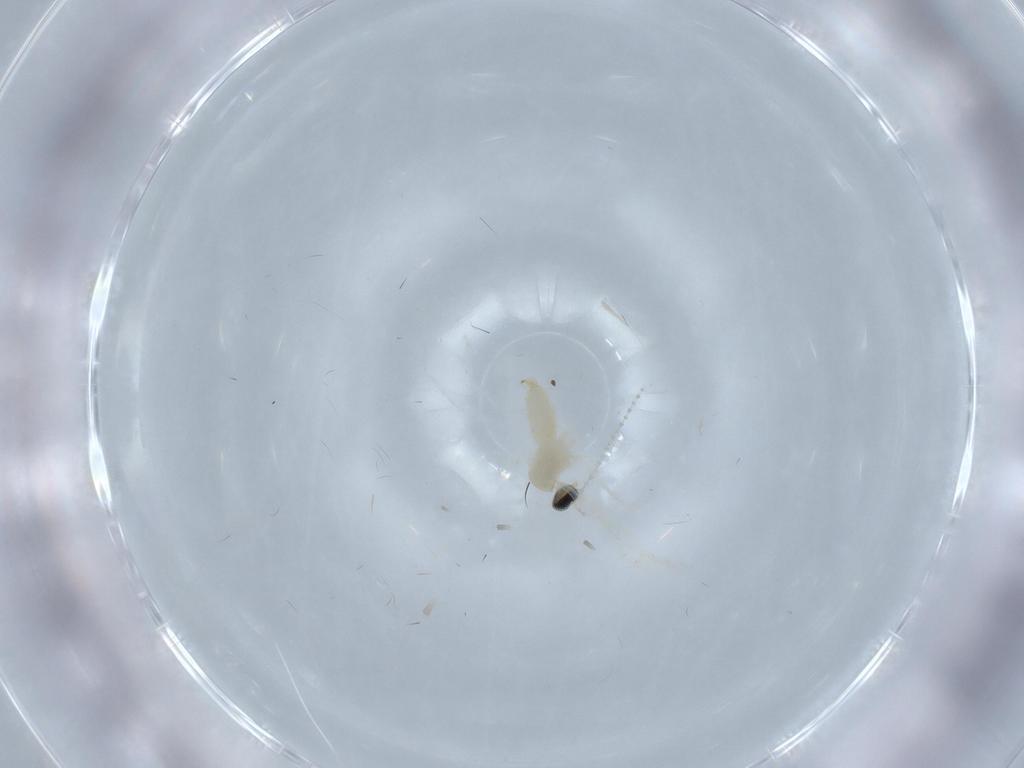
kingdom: Animalia
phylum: Arthropoda
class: Insecta
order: Diptera
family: Cecidomyiidae
